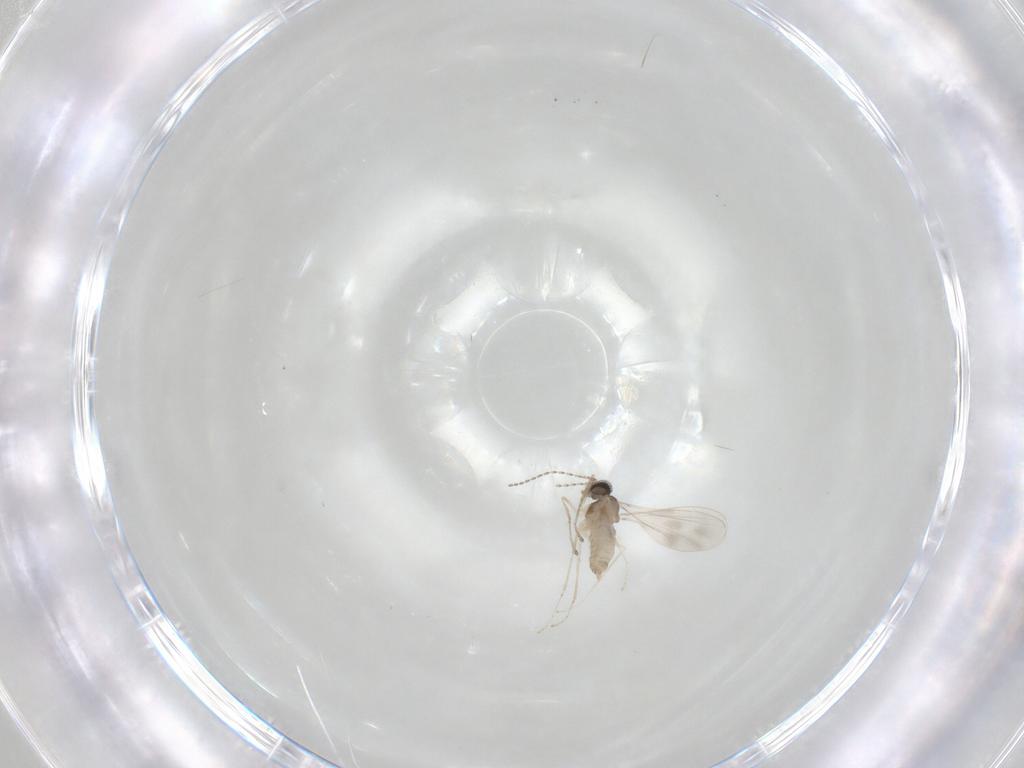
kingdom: Animalia
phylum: Arthropoda
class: Insecta
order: Diptera
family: Cecidomyiidae
